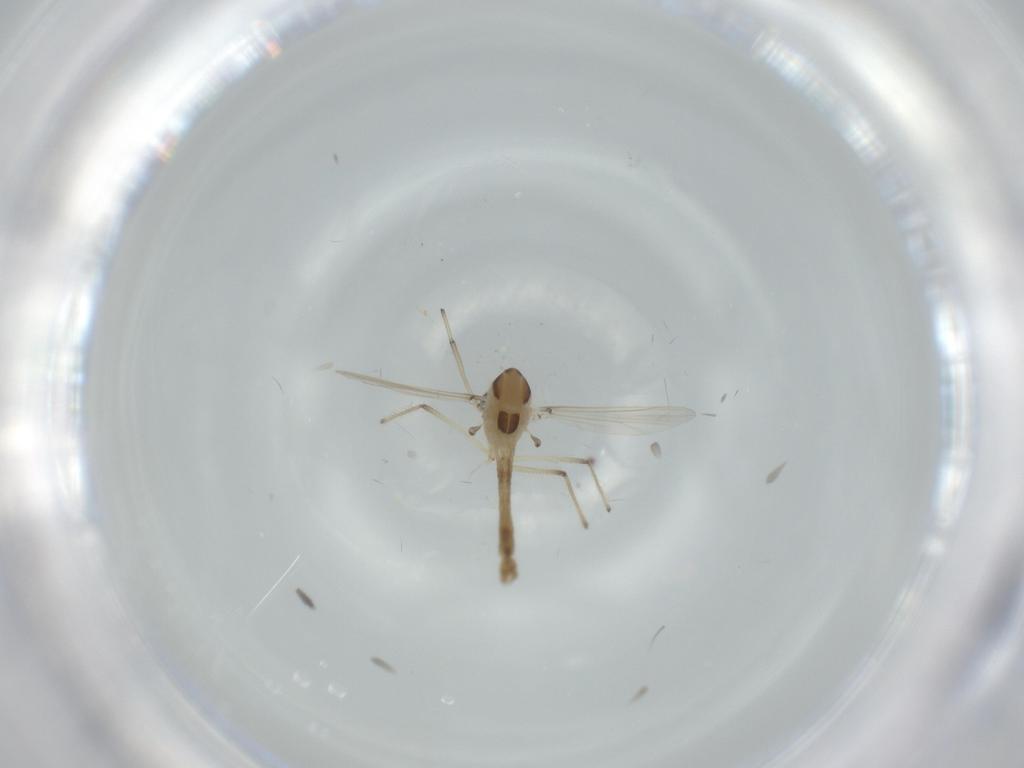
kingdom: Animalia
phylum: Arthropoda
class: Insecta
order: Diptera
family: Chironomidae
